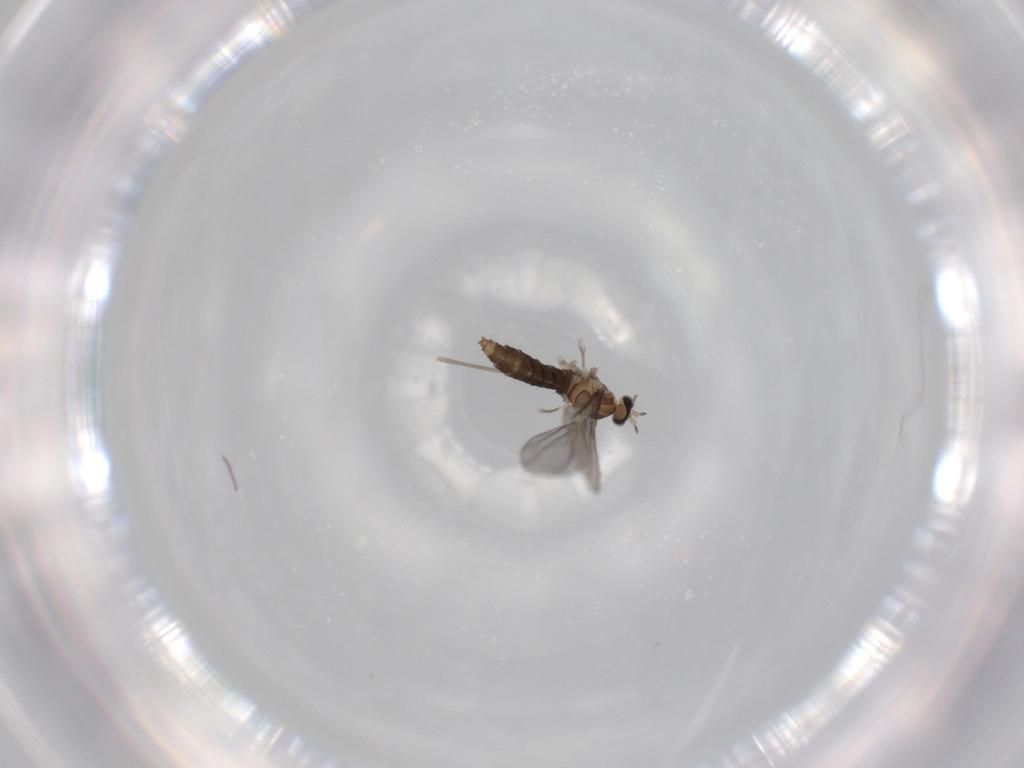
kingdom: Animalia
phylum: Arthropoda
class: Insecta
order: Diptera
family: Cecidomyiidae
